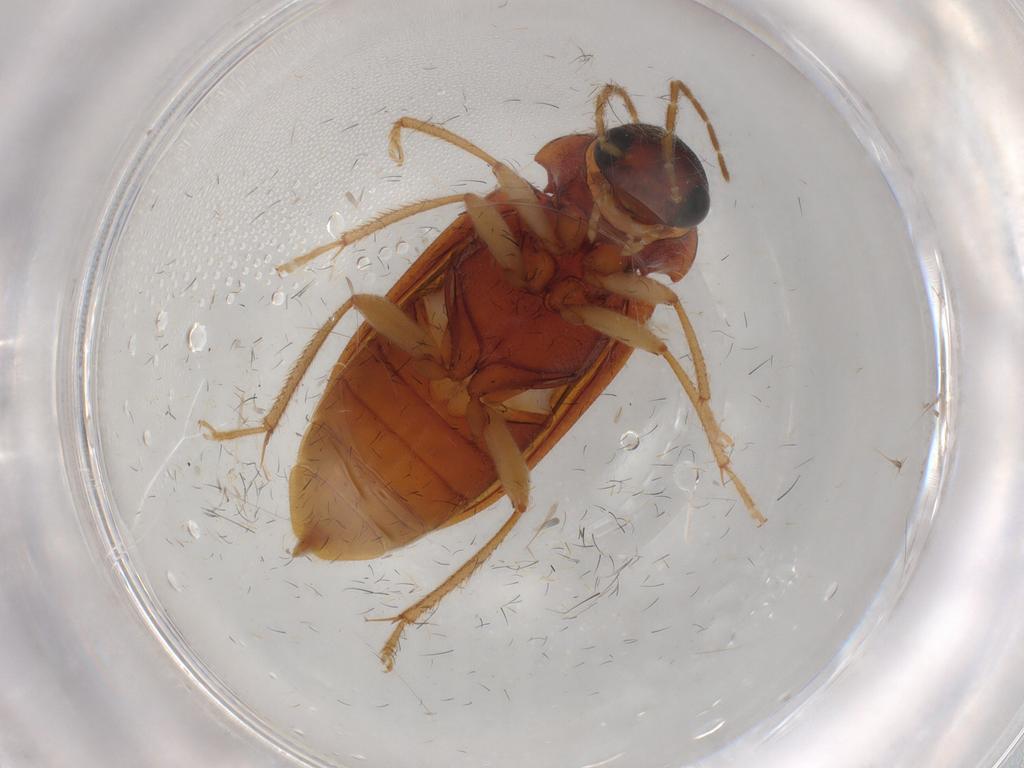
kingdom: Animalia
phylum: Arthropoda
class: Insecta
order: Coleoptera
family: Ptilodactylidae
